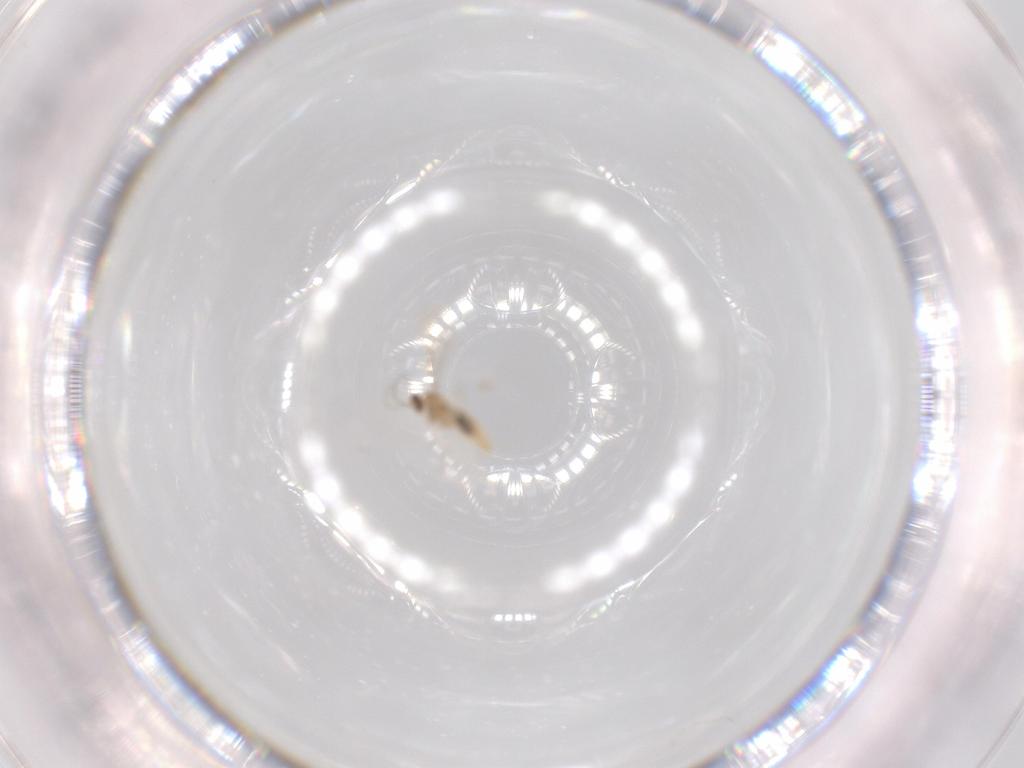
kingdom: Animalia
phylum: Arthropoda
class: Insecta
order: Diptera
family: Cecidomyiidae
